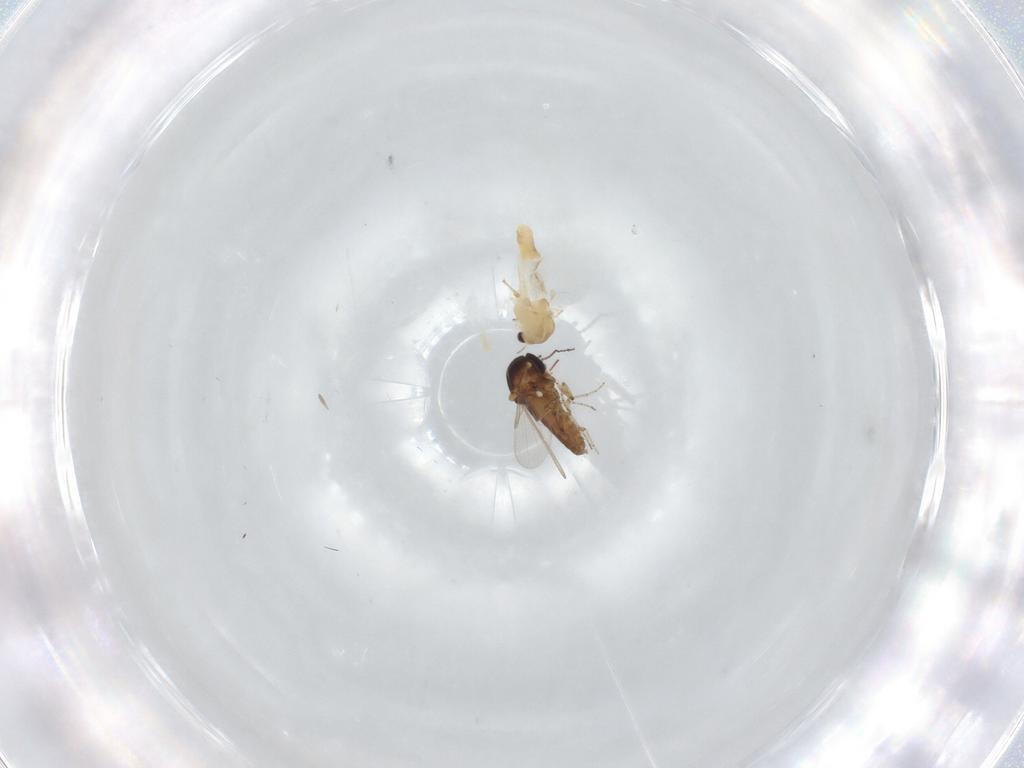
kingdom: Animalia
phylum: Arthropoda
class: Insecta
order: Diptera
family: Ceratopogonidae
